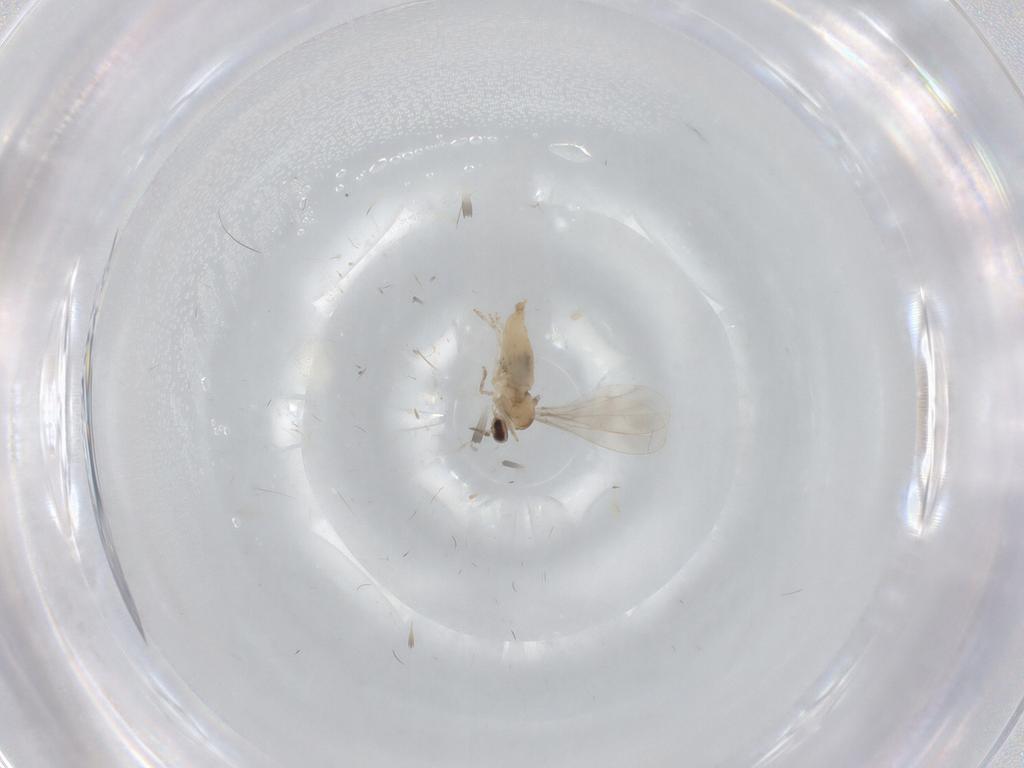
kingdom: Animalia
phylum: Arthropoda
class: Insecta
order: Diptera
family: Cecidomyiidae
